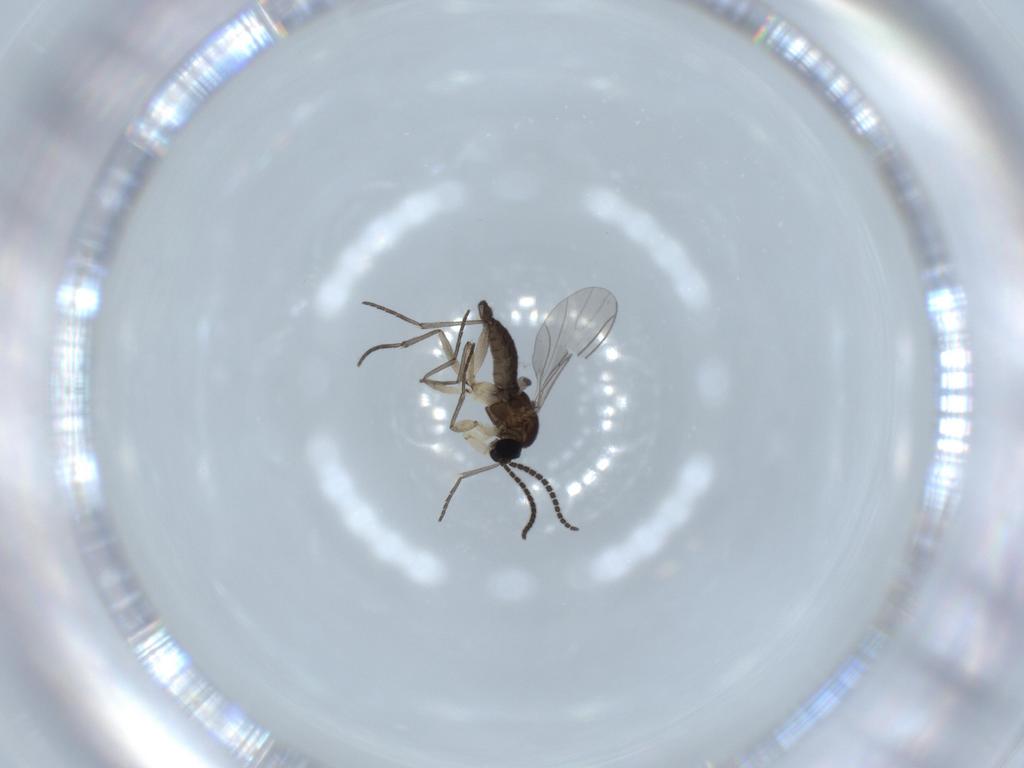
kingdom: Animalia
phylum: Arthropoda
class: Insecta
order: Diptera
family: Sciaridae
